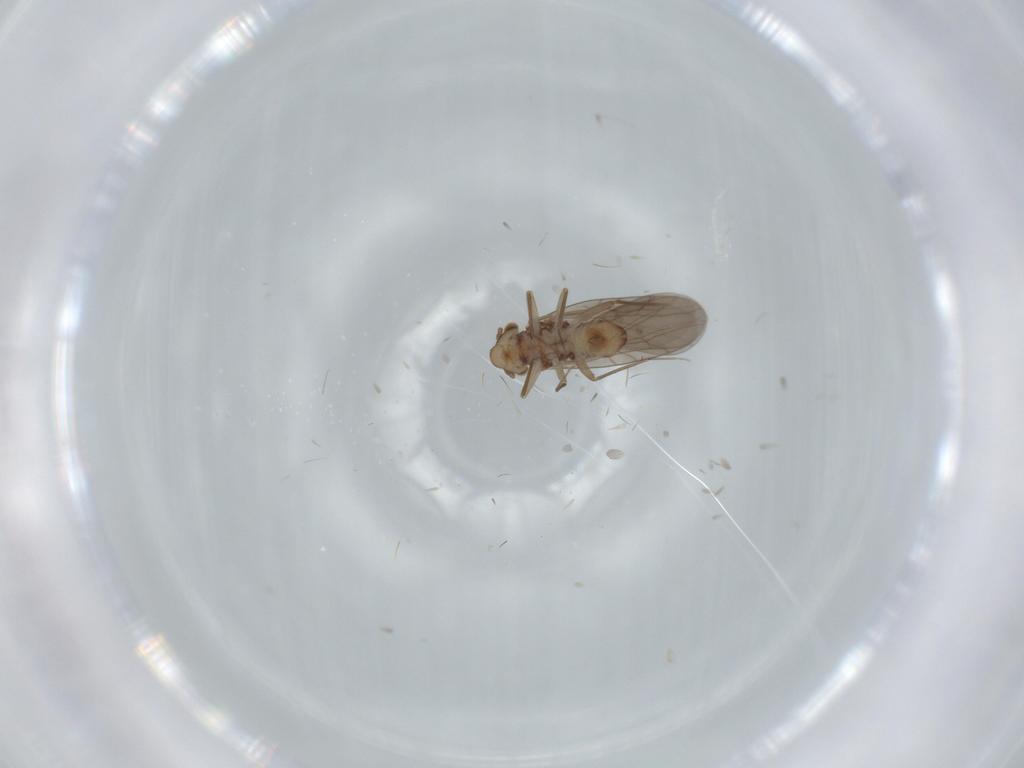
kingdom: Animalia
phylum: Arthropoda
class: Insecta
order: Psocodea
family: Lepidopsocidae
